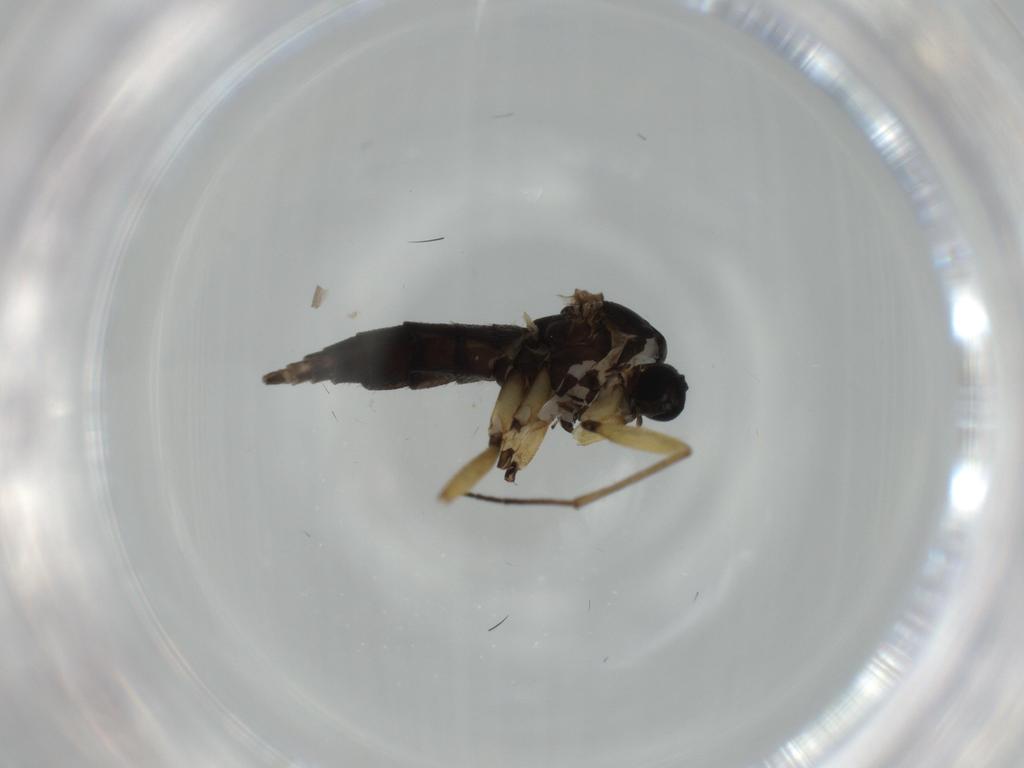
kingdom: Animalia
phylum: Arthropoda
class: Insecta
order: Diptera
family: Sciaridae
